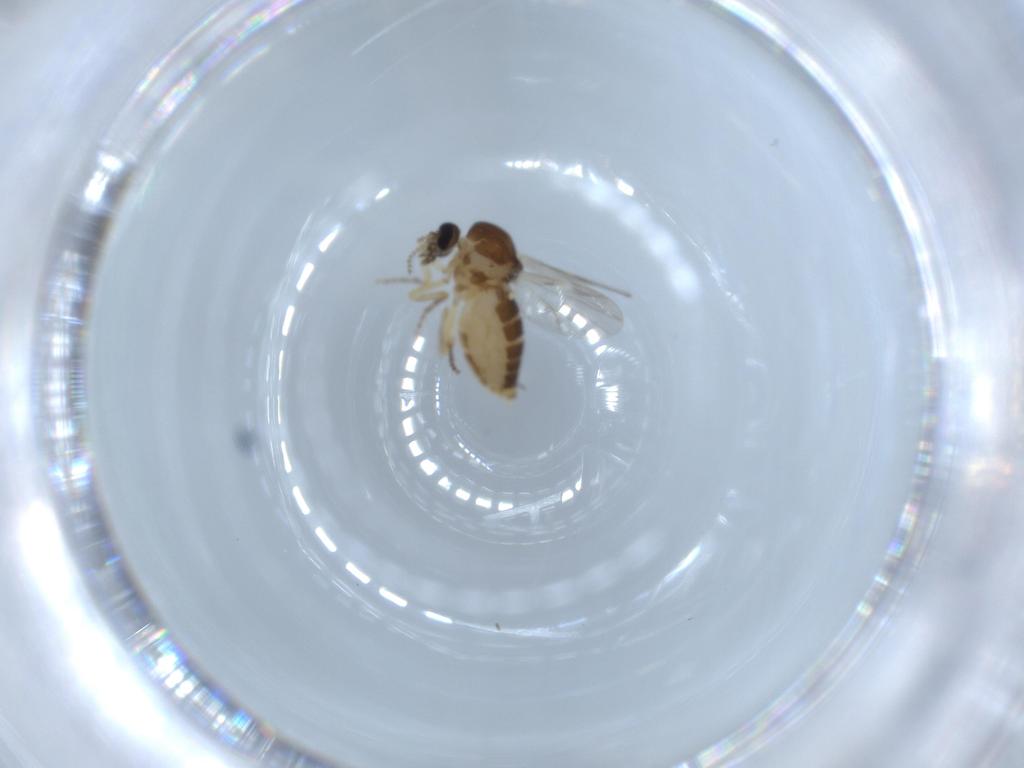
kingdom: Animalia
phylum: Arthropoda
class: Insecta
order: Diptera
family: Ceratopogonidae
